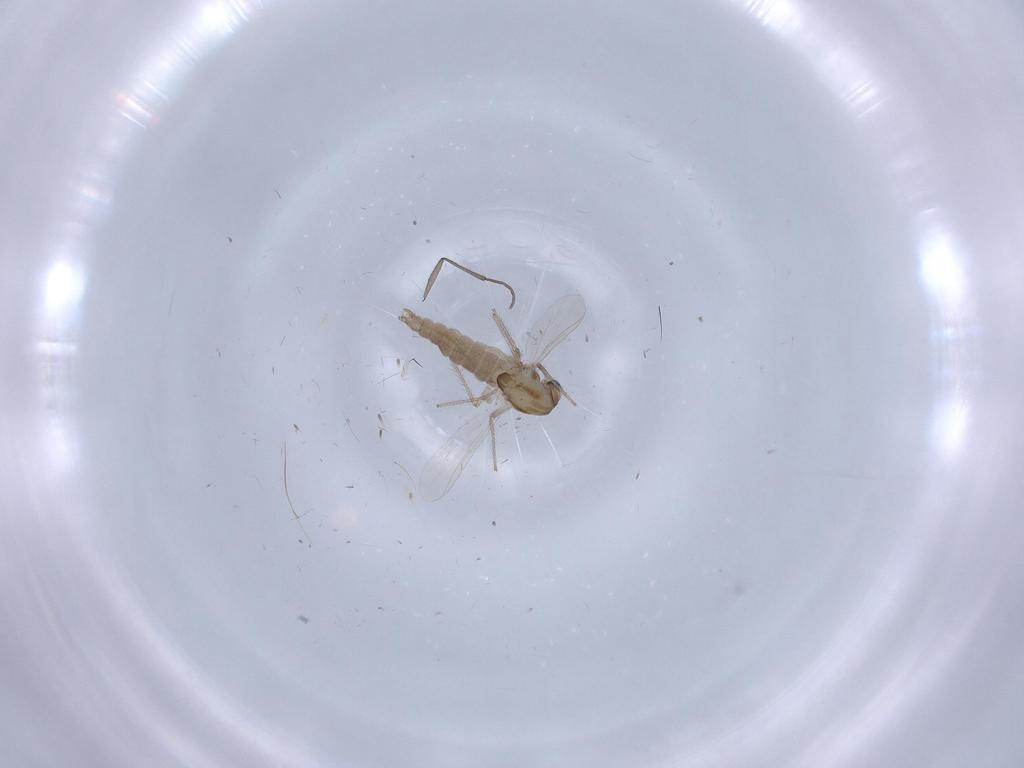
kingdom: Animalia
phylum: Arthropoda
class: Insecta
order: Diptera
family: Chironomidae
